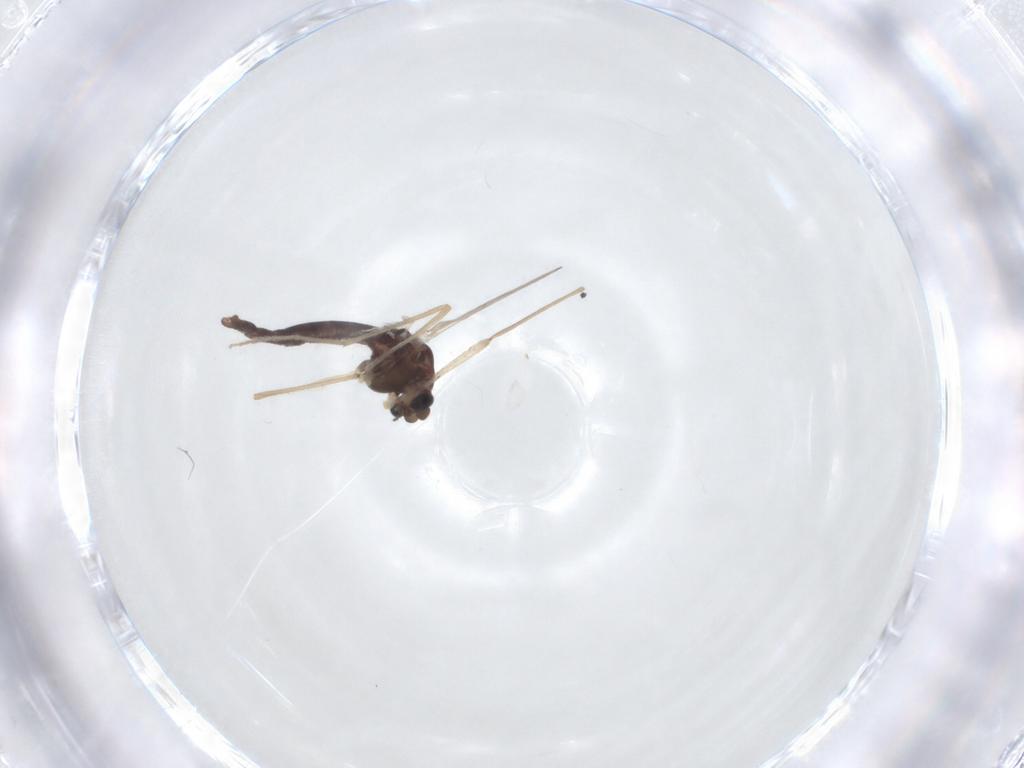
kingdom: Animalia
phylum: Arthropoda
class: Insecta
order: Diptera
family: Chironomidae
